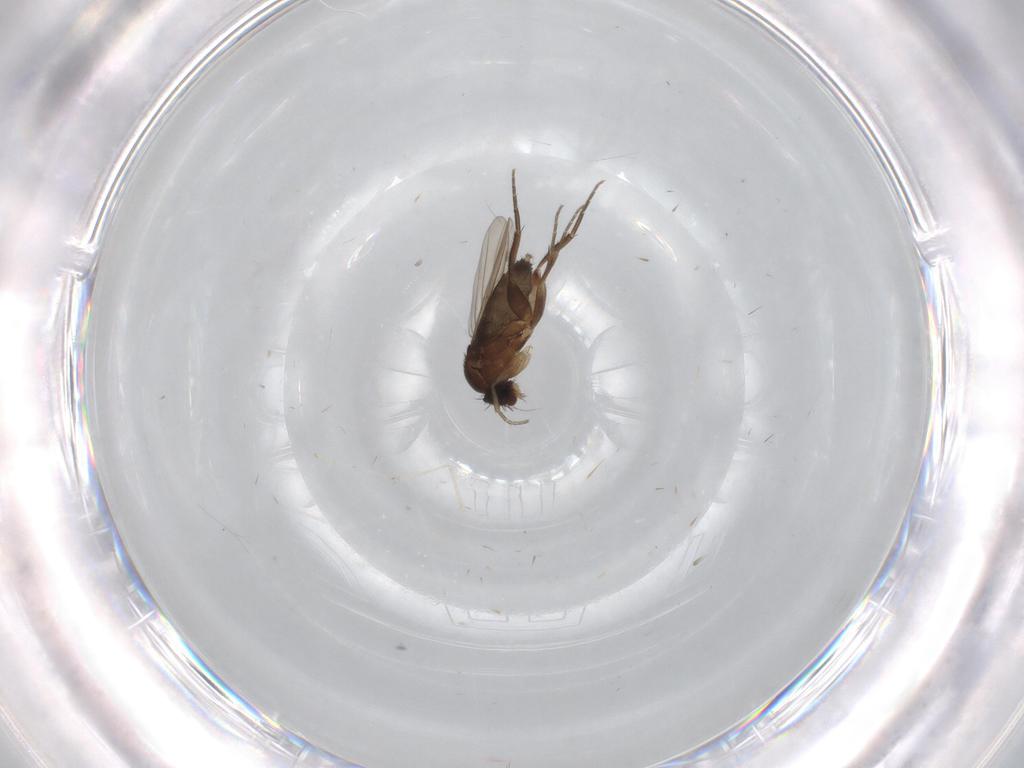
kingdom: Animalia
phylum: Arthropoda
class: Insecta
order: Diptera
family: Phoridae
